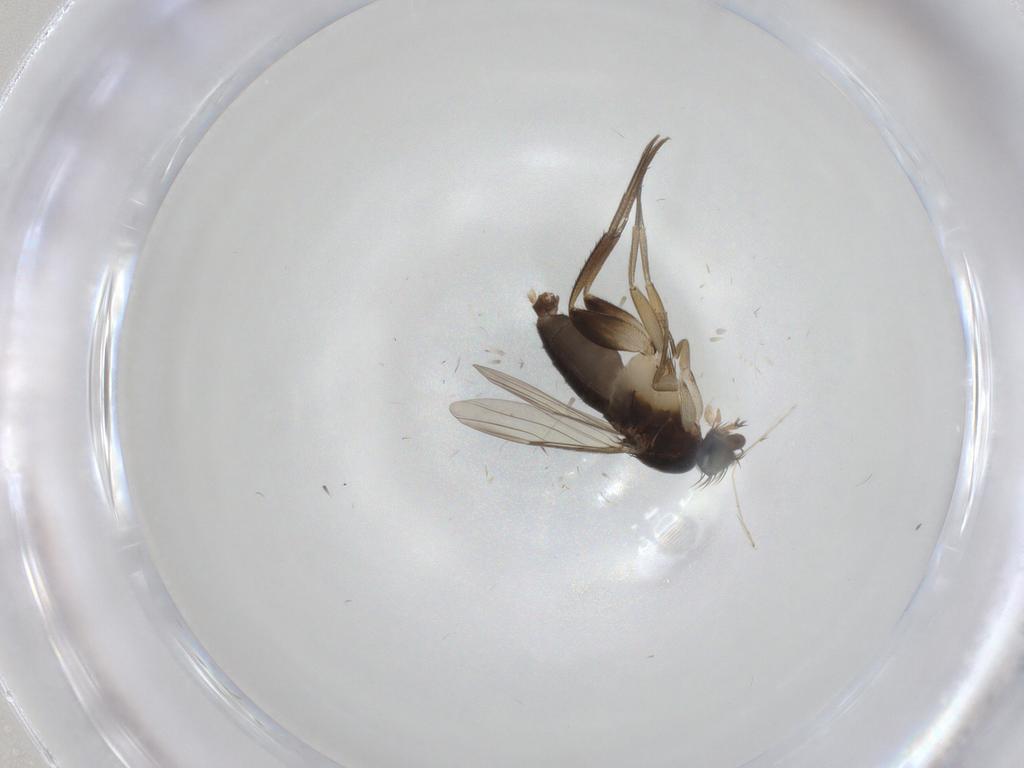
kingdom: Animalia
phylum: Arthropoda
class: Insecta
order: Diptera
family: Phoridae
